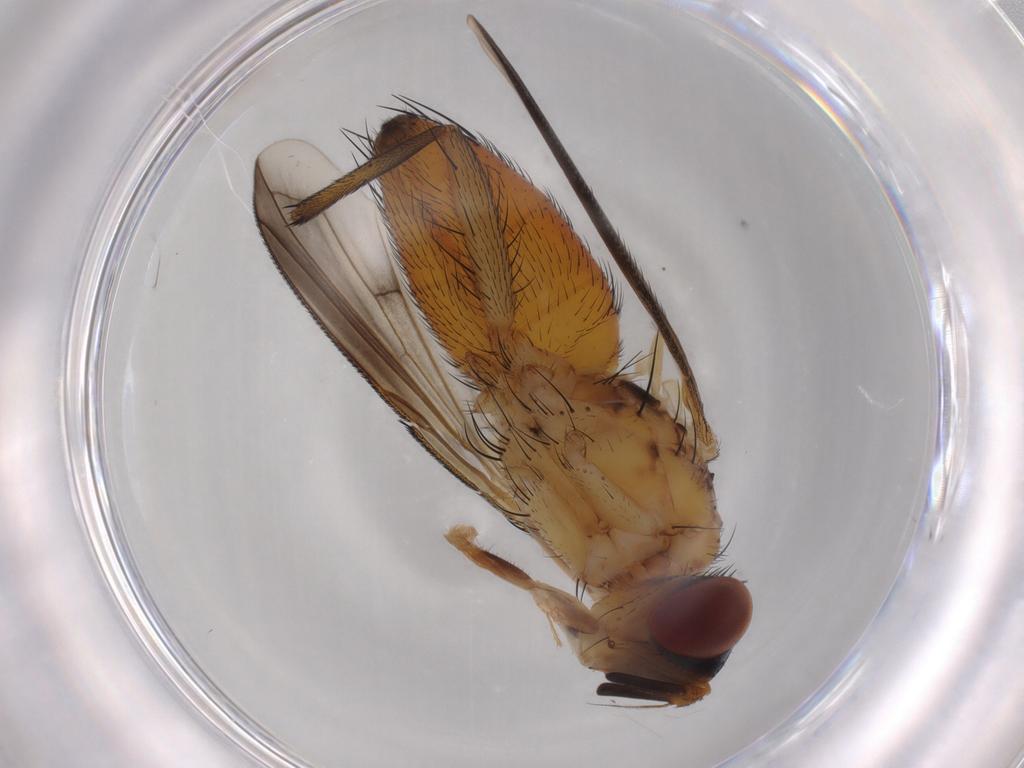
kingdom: Animalia
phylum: Arthropoda
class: Insecta
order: Diptera
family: Tachinidae
